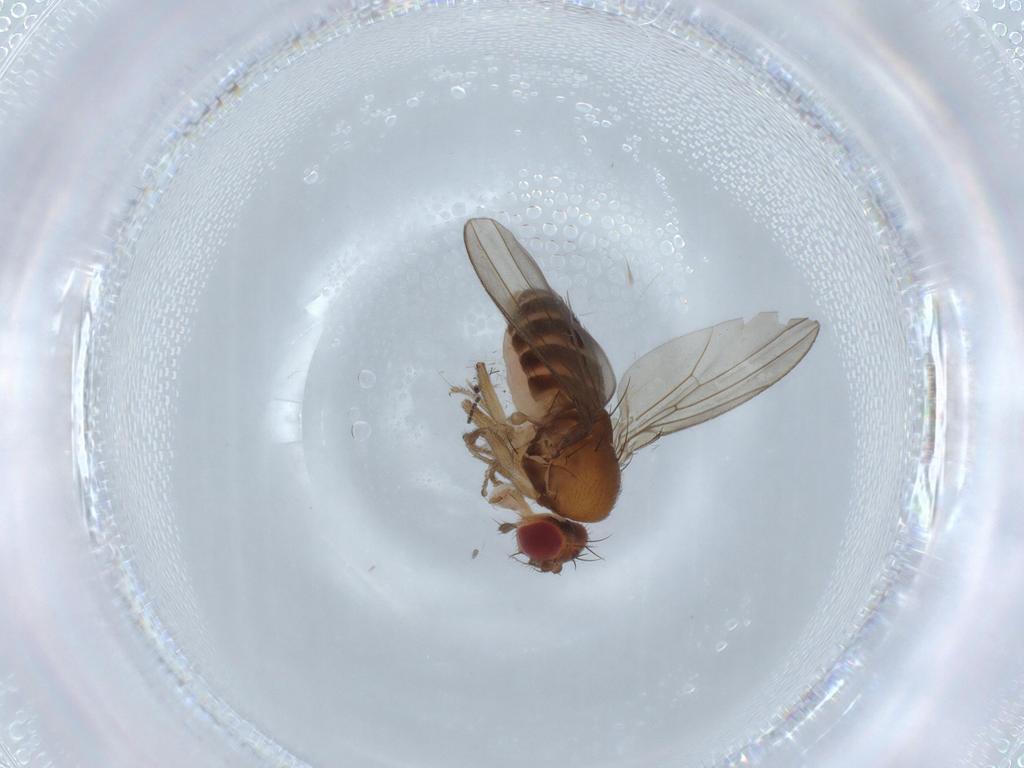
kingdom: Animalia
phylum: Arthropoda
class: Insecta
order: Diptera
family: Drosophilidae
